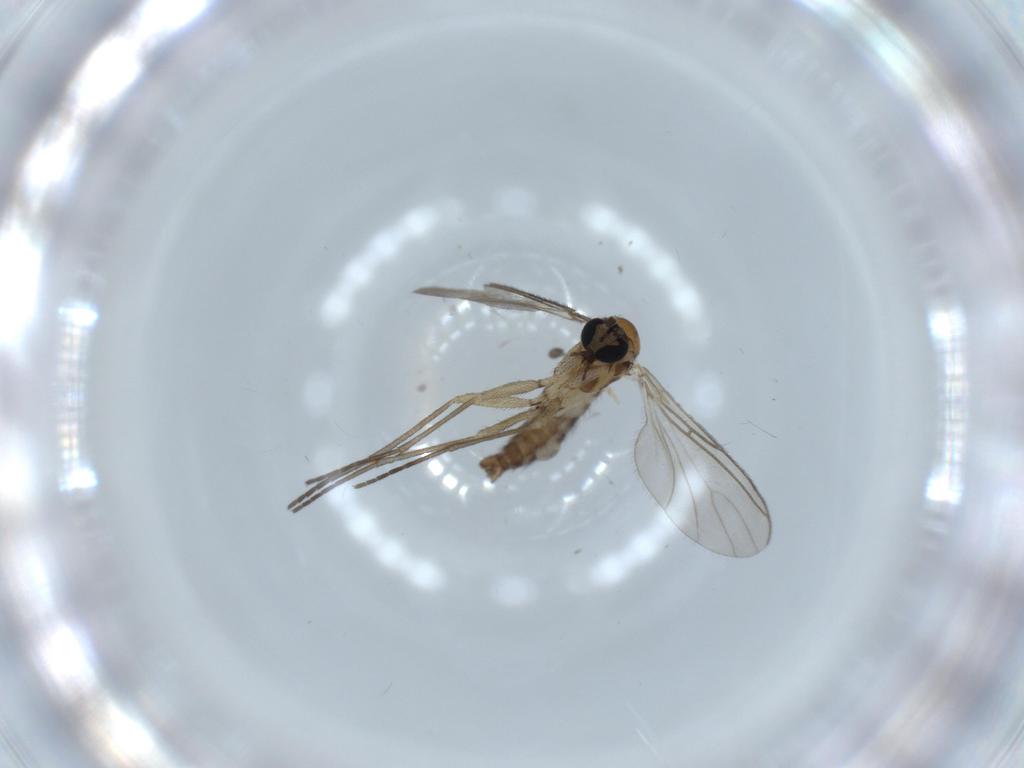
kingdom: Animalia
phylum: Arthropoda
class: Insecta
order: Diptera
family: Sciaridae
